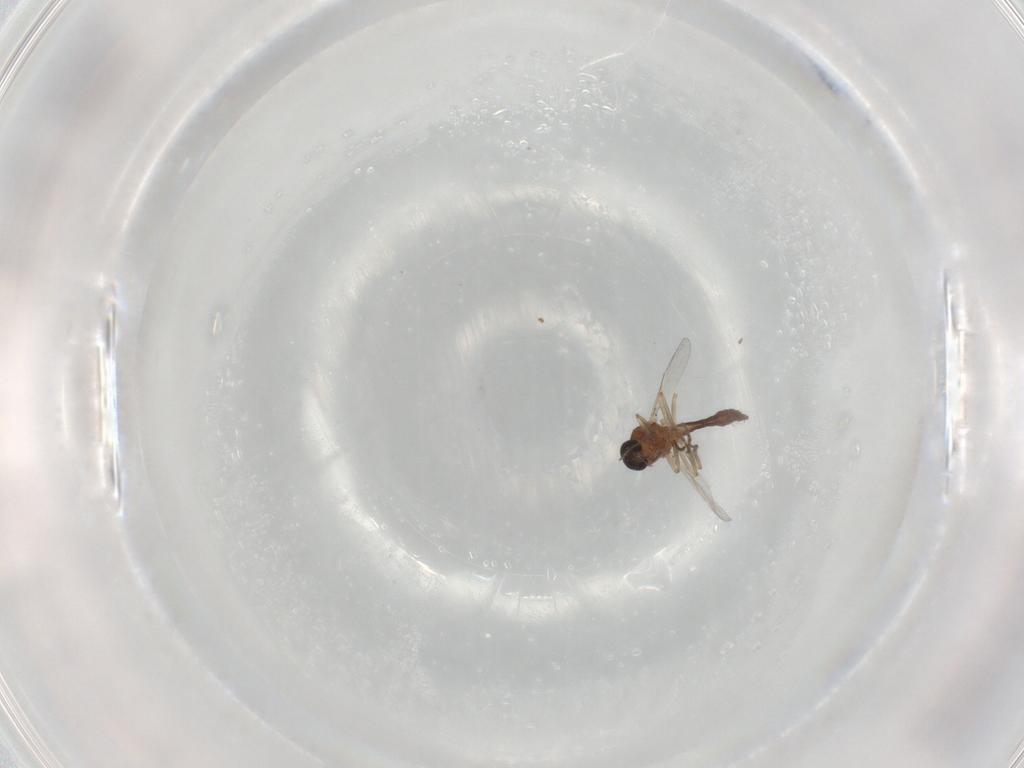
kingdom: Animalia
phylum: Arthropoda
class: Insecta
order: Diptera
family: Ceratopogonidae
